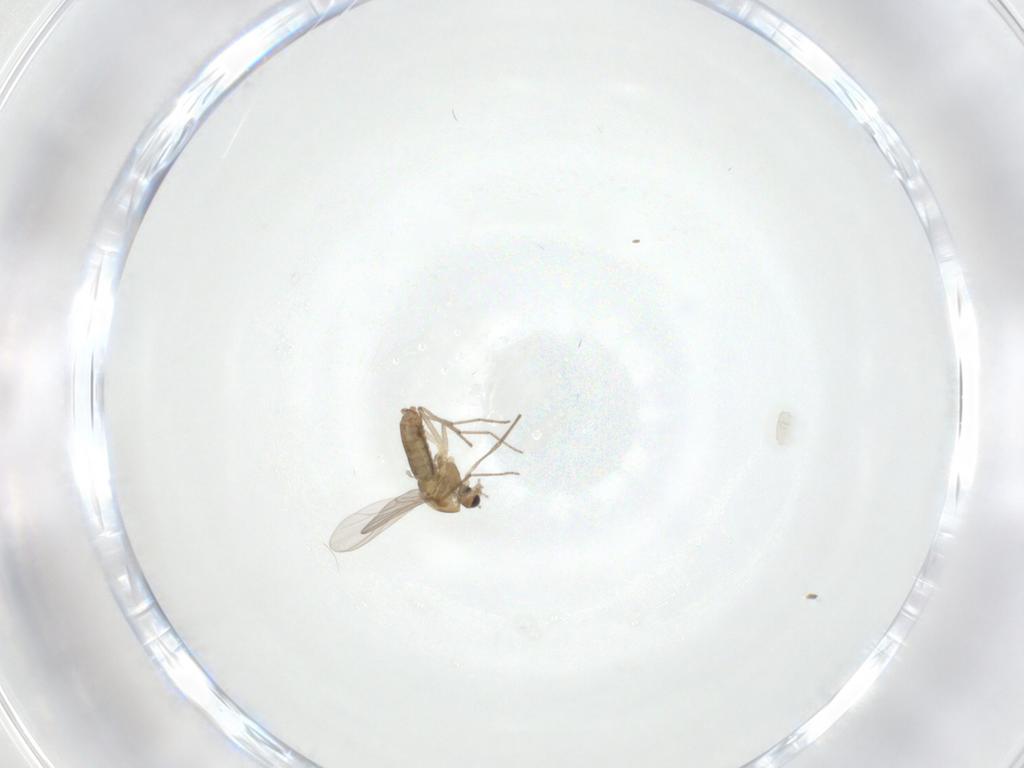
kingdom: Animalia
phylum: Arthropoda
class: Insecta
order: Diptera
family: Chironomidae
